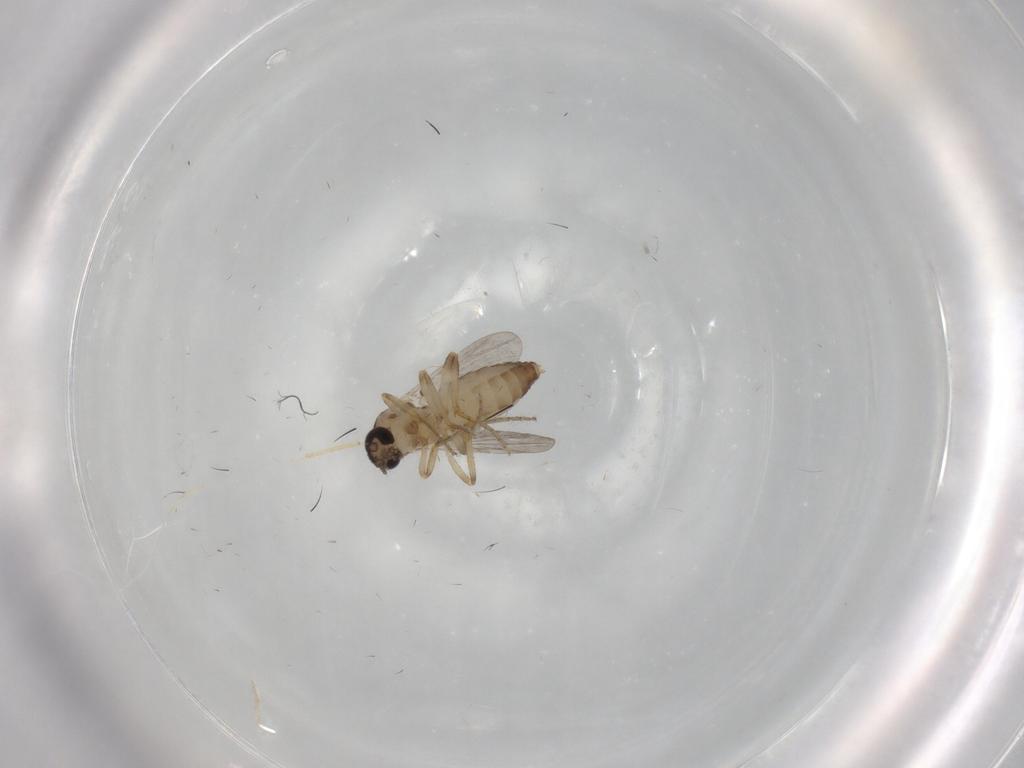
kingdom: Animalia
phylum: Arthropoda
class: Insecta
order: Diptera
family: Ceratopogonidae
